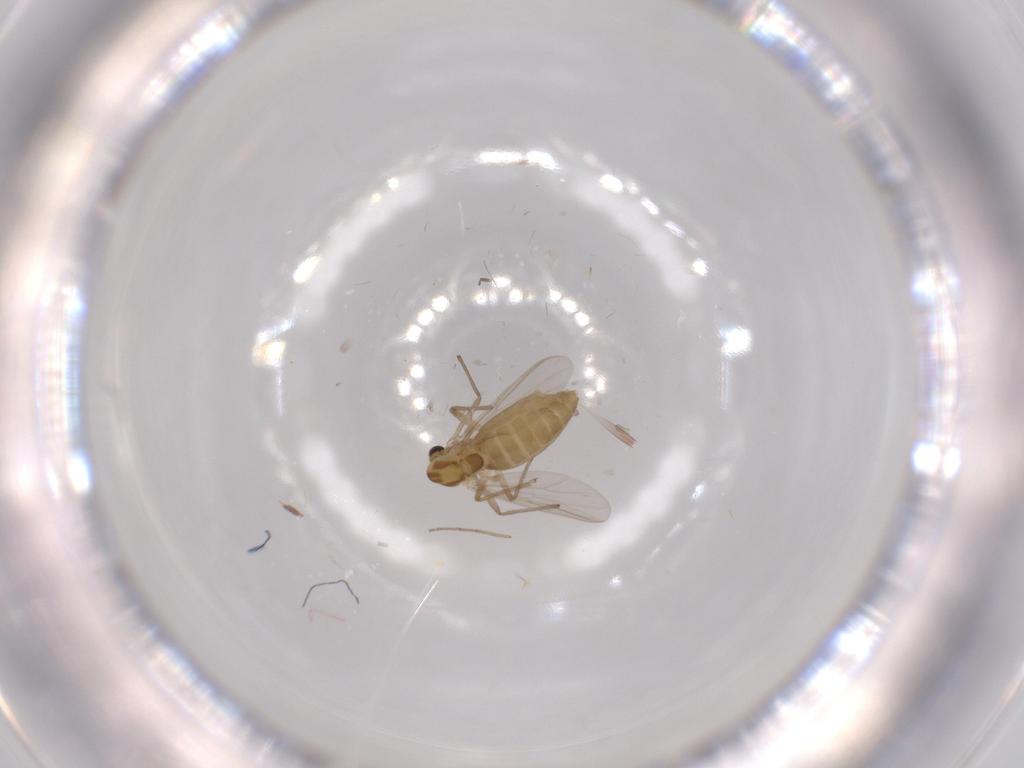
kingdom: Animalia
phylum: Arthropoda
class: Insecta
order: Diptera
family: Chironomidae
